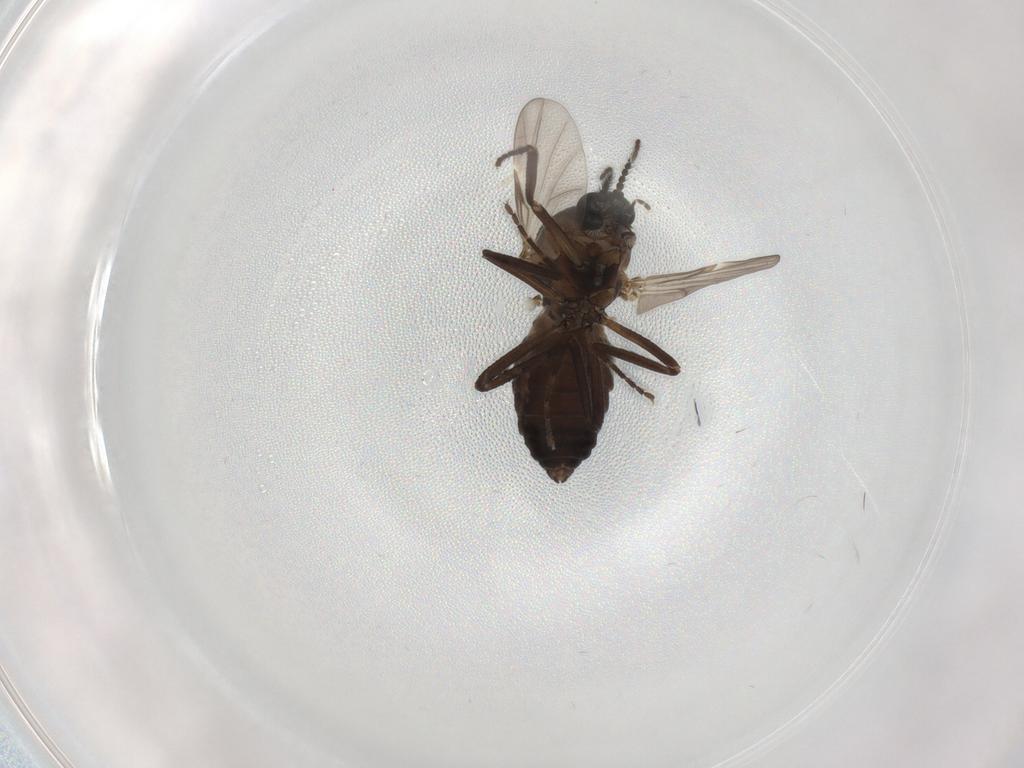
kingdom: Animalia
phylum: Arthropoda
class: Insecta
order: Diptera
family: Ceratopogonidae
